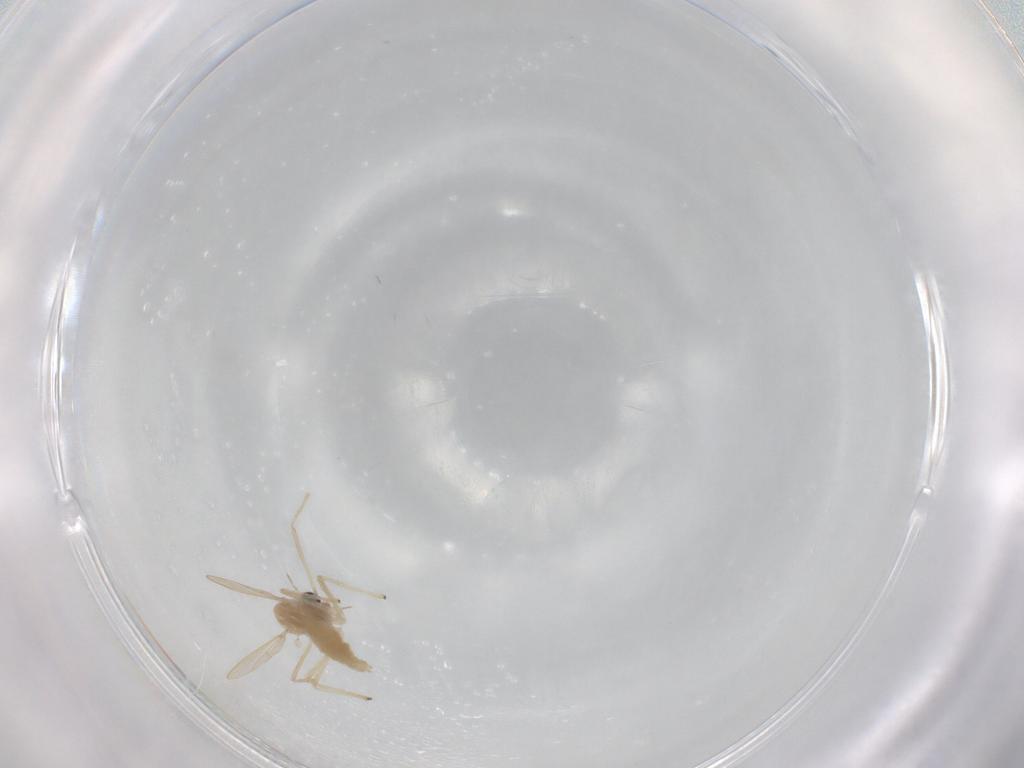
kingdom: Animalia
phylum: Arthropoda
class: Insecta
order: Diptera
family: Chironomidae
